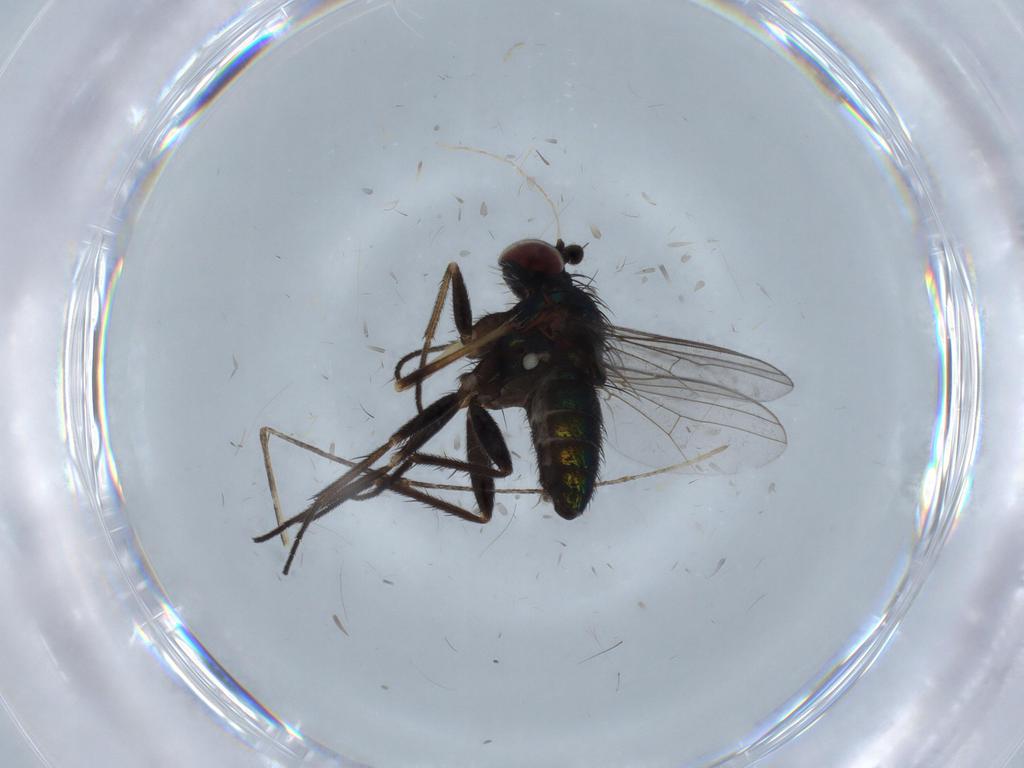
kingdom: Animalia
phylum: Arthropoda
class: Insecta
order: Diptera
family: Dolichopodidae
